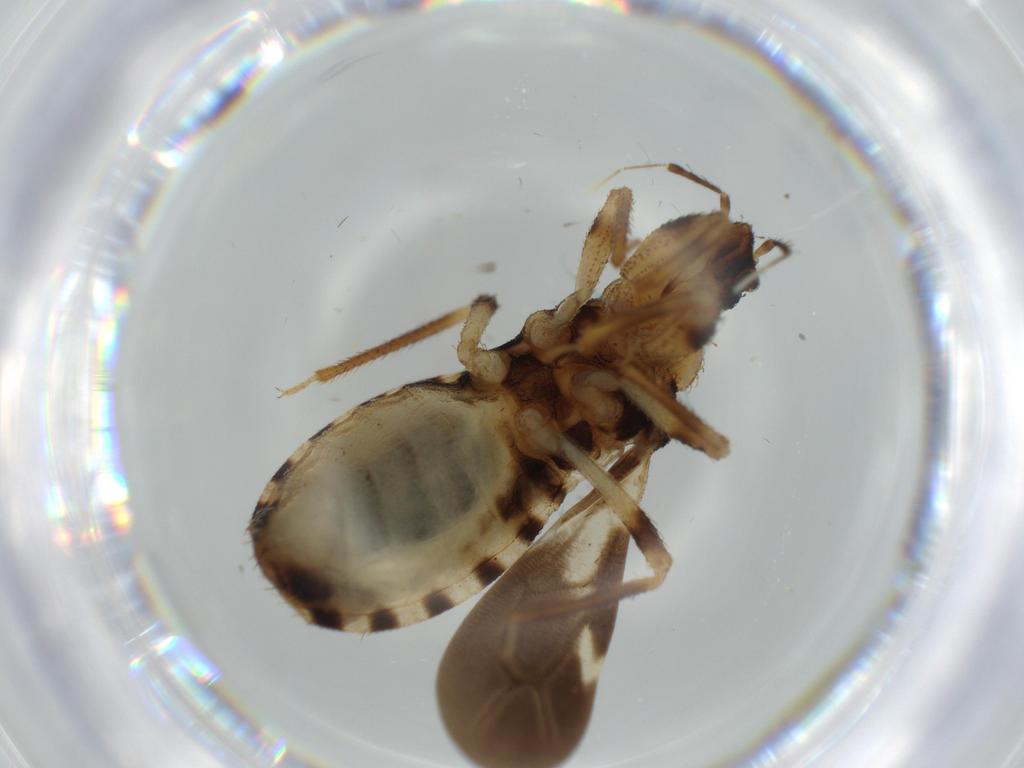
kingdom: Animalia
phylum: Arthropoda
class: Insecta
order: Hemiptera
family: Reduviidae
